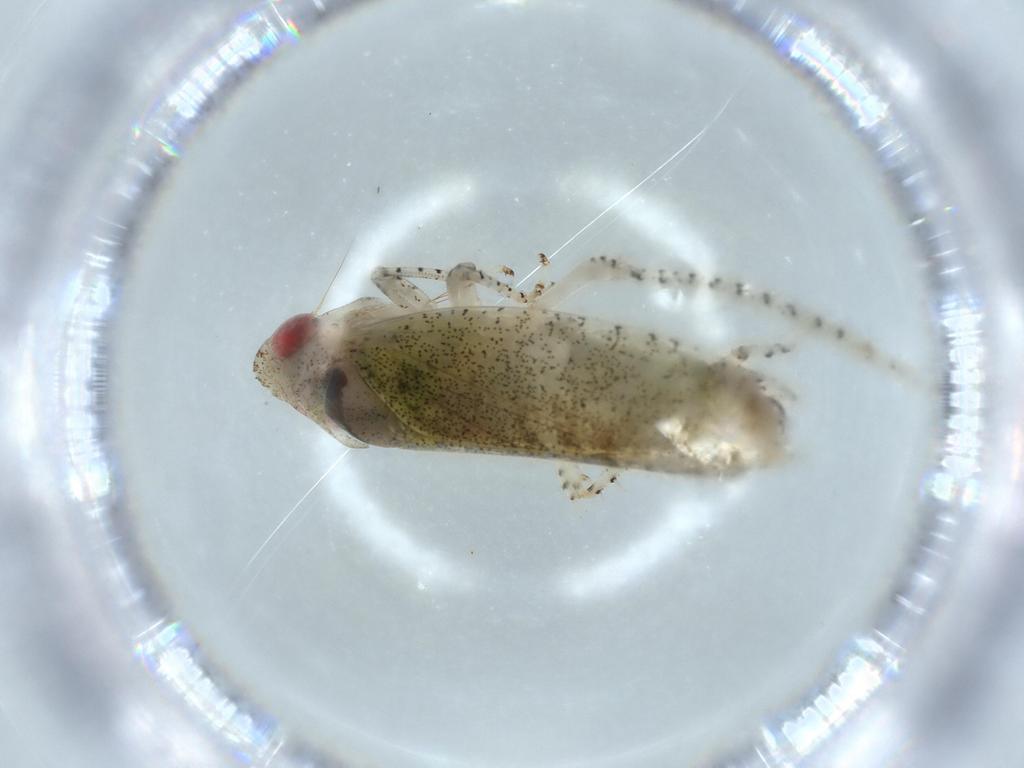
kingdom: Animalia
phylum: Arthropoda
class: Insecta
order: Hemiptera
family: Cicadellidae
